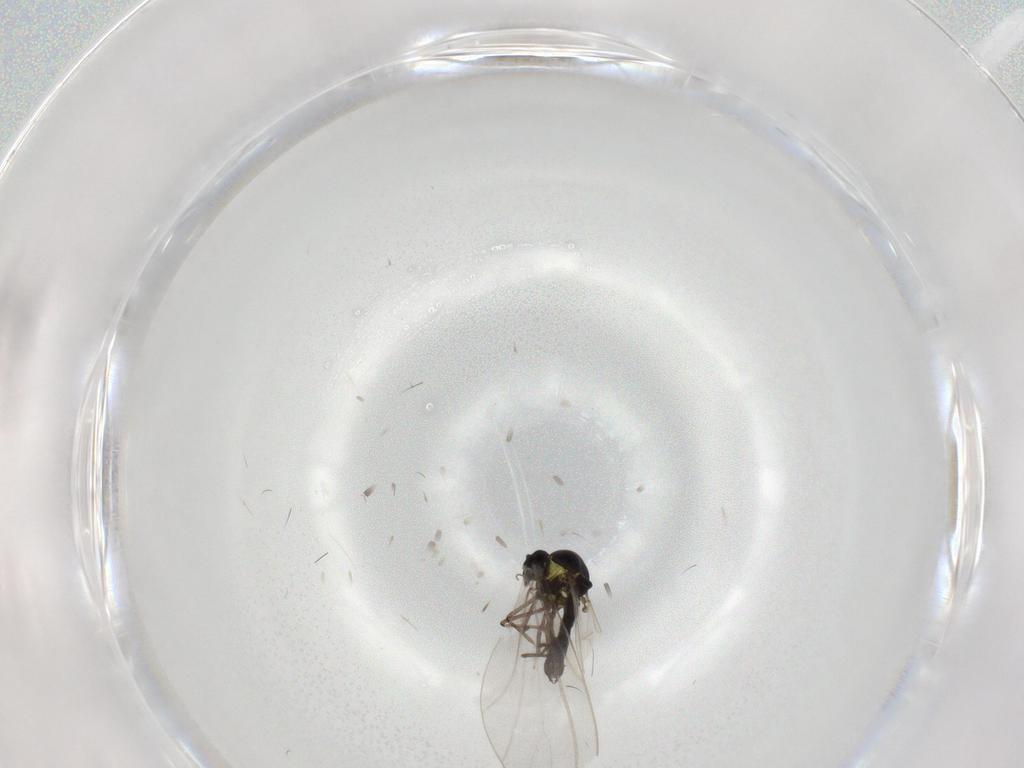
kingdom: Animalia
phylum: Arthropoda
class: Insecta
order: Diptera
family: Cecidomyiidae
